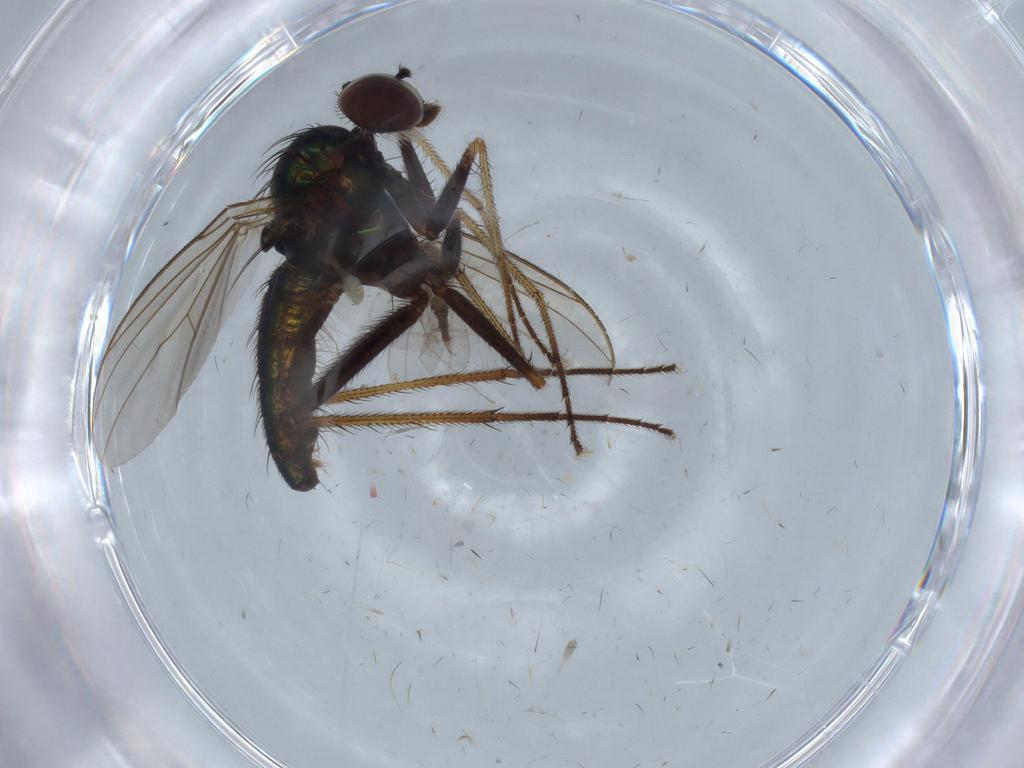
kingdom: Animalia
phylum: Arthropoda
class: Insecta
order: Diptera
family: Dolichopodidae
